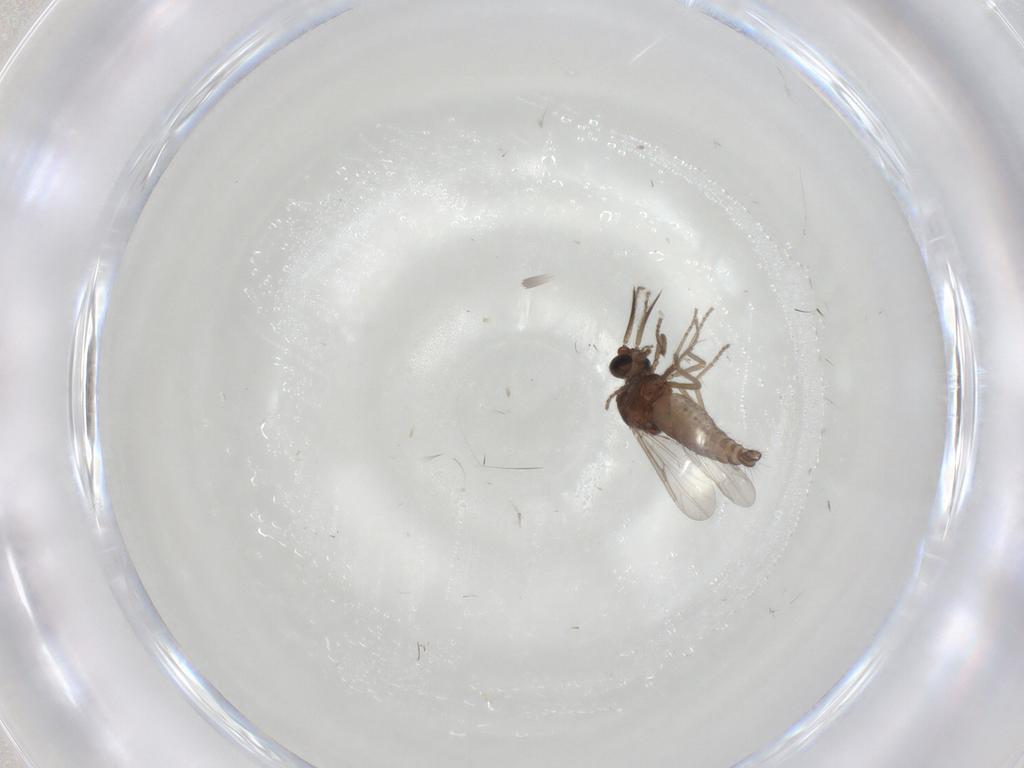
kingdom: Animalia
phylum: Arthropoda
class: Insecta
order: Diptera
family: Ceratopogonidae
